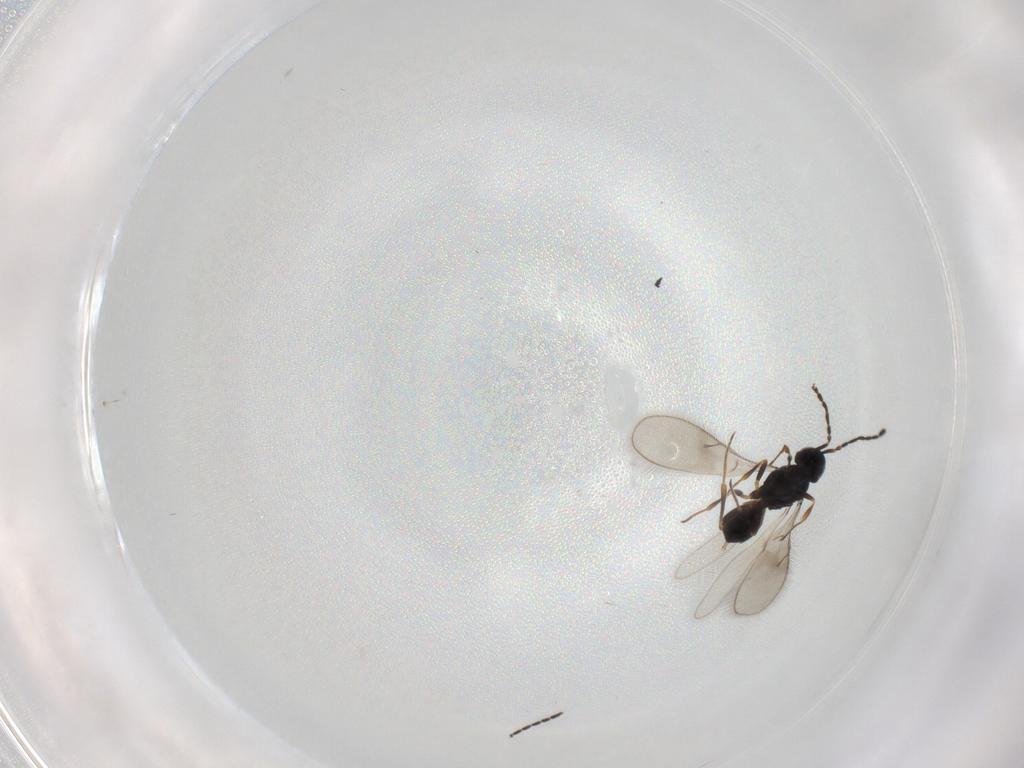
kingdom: Animalia
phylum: Arthropoda
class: Insecta
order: Hymenoptera
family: Scelionidae
